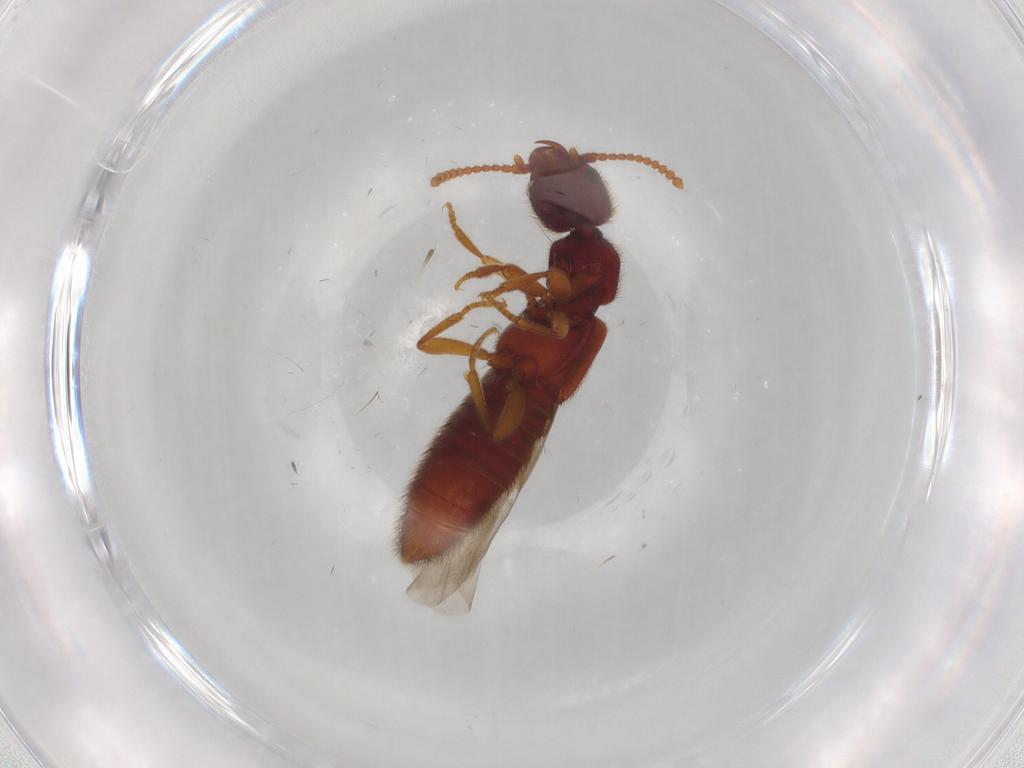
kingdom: Animalia
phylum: Arthropoda
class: Insecta
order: Coleoptera
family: Staphylinidae
